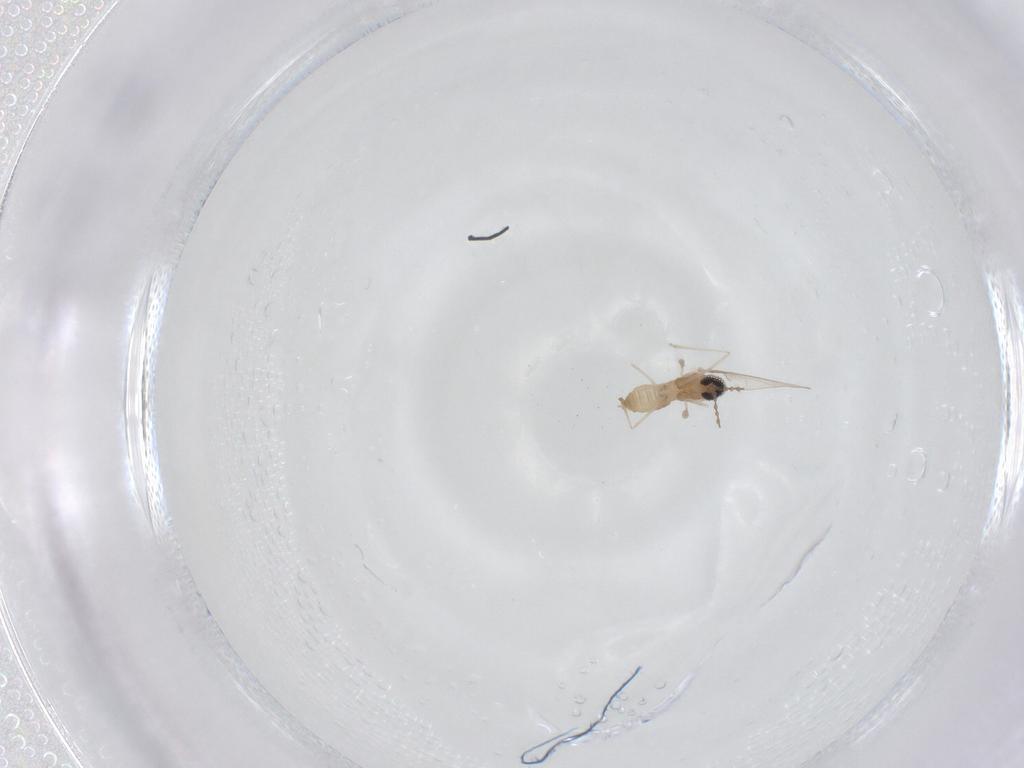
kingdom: Animalia
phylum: Arthropoda
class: Insecta
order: Diptera
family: Cecidomyiidae
